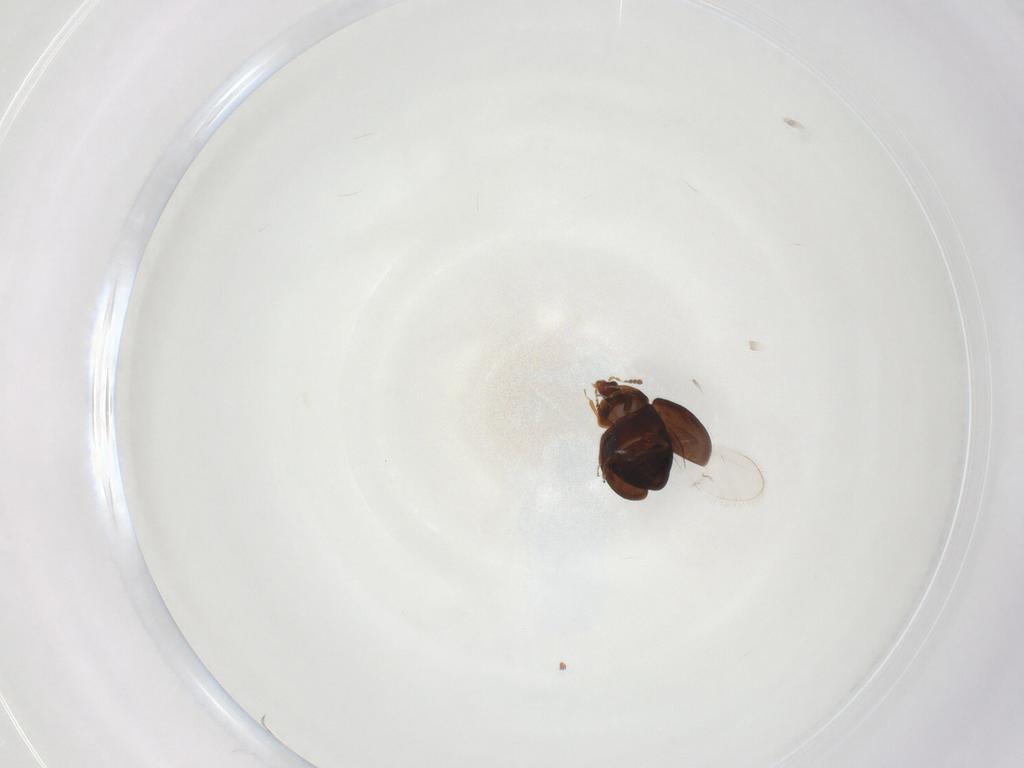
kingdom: Animalia
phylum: Arthropoda
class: Insecta
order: Coleoptera
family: Corylophidae
